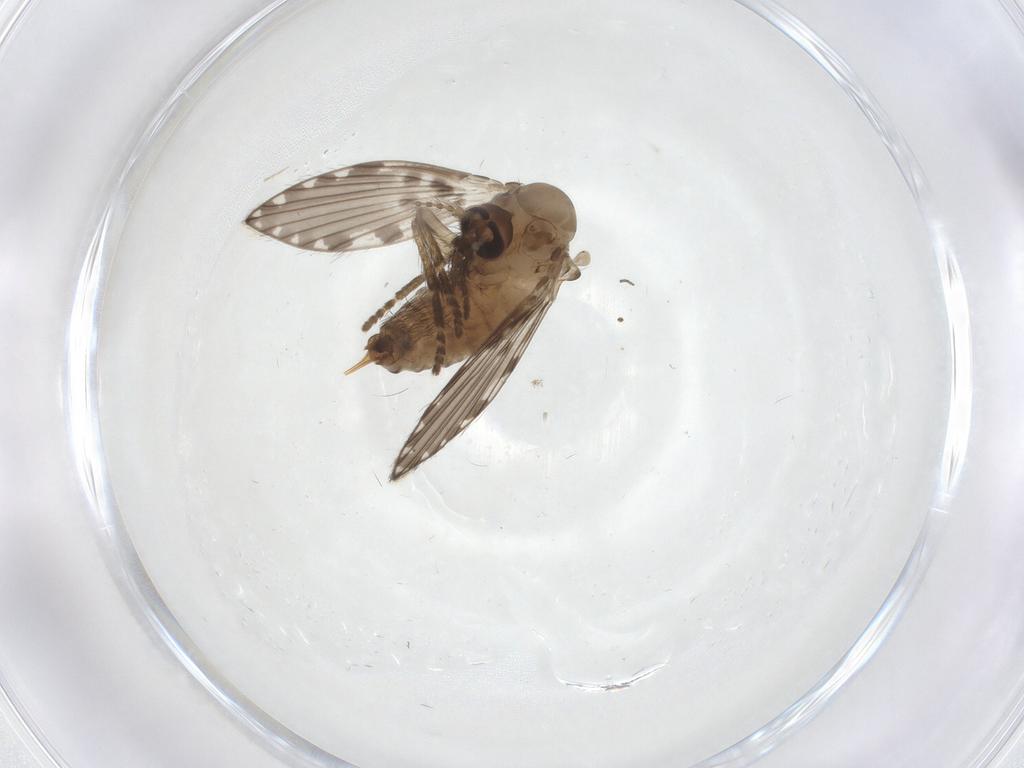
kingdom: Animalia
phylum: Arthropoda
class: Insecta
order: Diptera
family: Psychodidae
